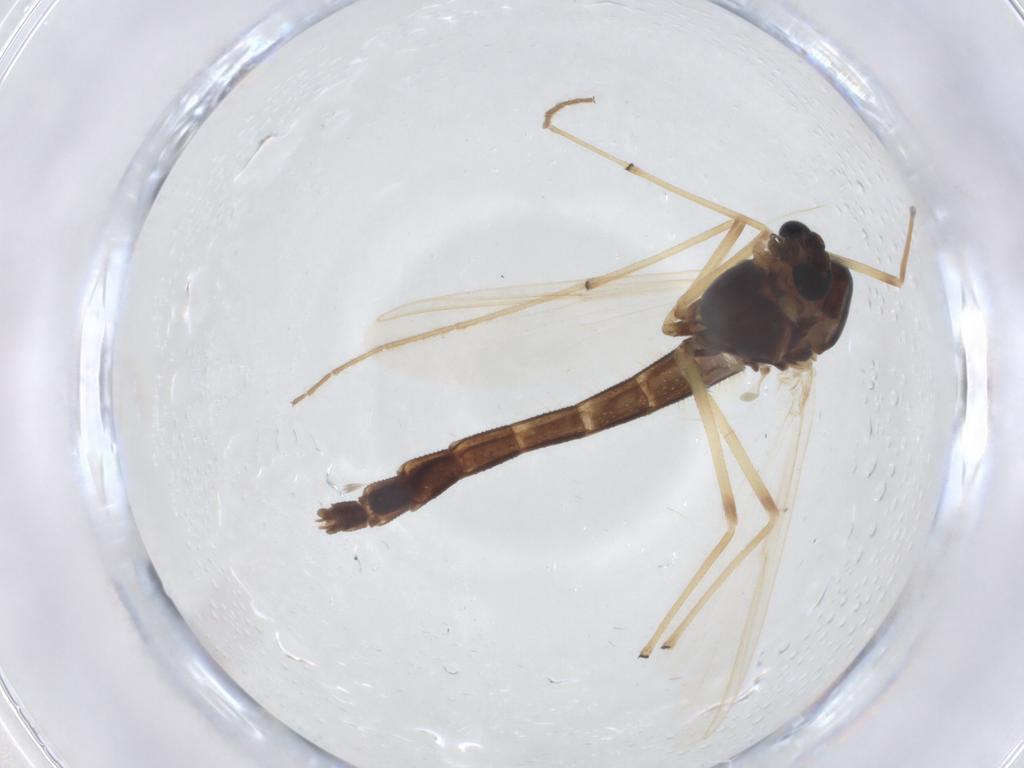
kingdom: Animalia
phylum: Arthropoda
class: Insecta
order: Diptera
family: Chironomidae
